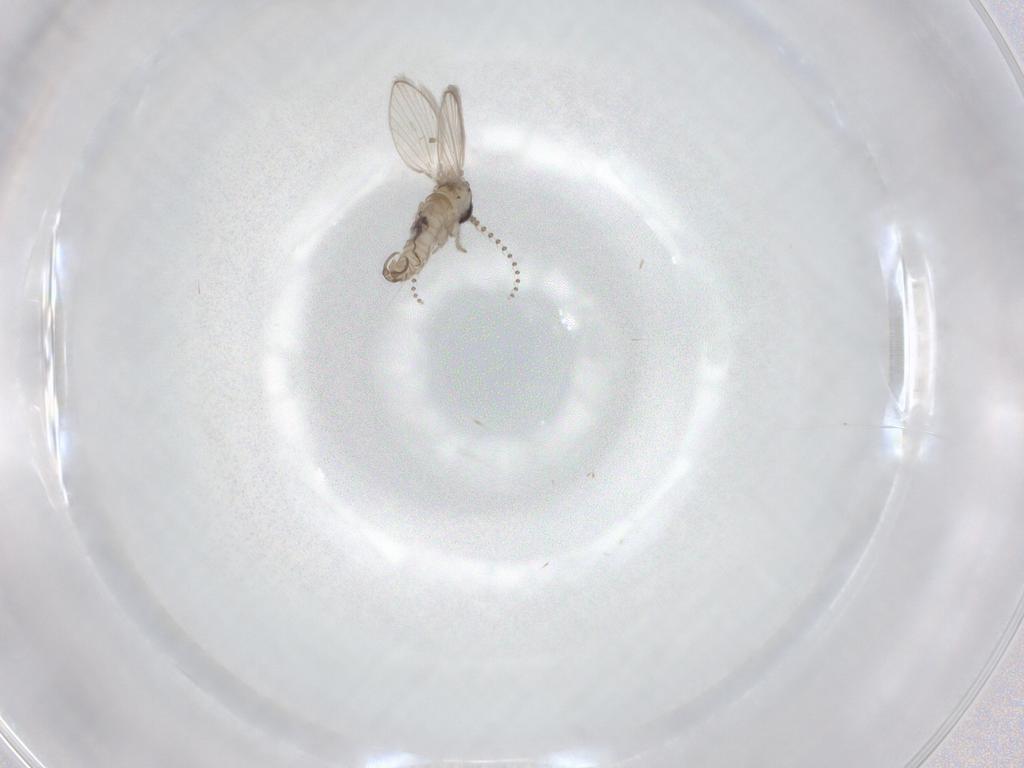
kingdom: Animalia
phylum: Arthropoda
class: Insecta
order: Diptera
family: Psychodidae
